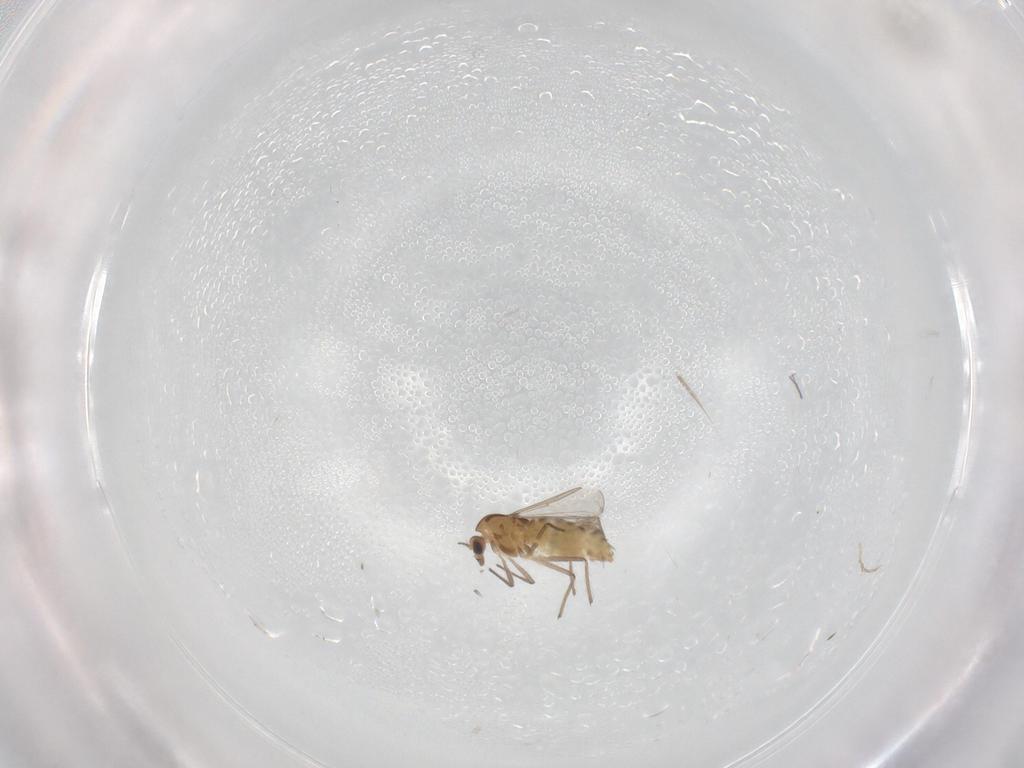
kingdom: Animalia
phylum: Arthropoda
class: Insecta
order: Diptera
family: Sphaeroceridae
